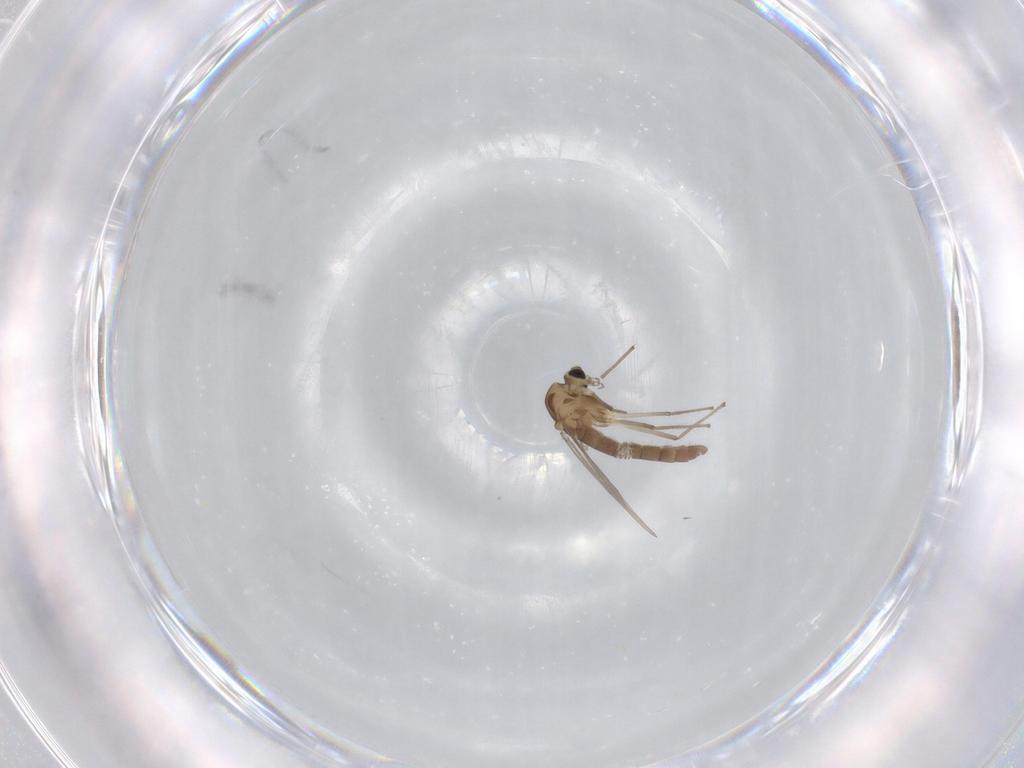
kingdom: Animalia
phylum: Arthropoda
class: Insecta
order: Diptera
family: Chironomidae
